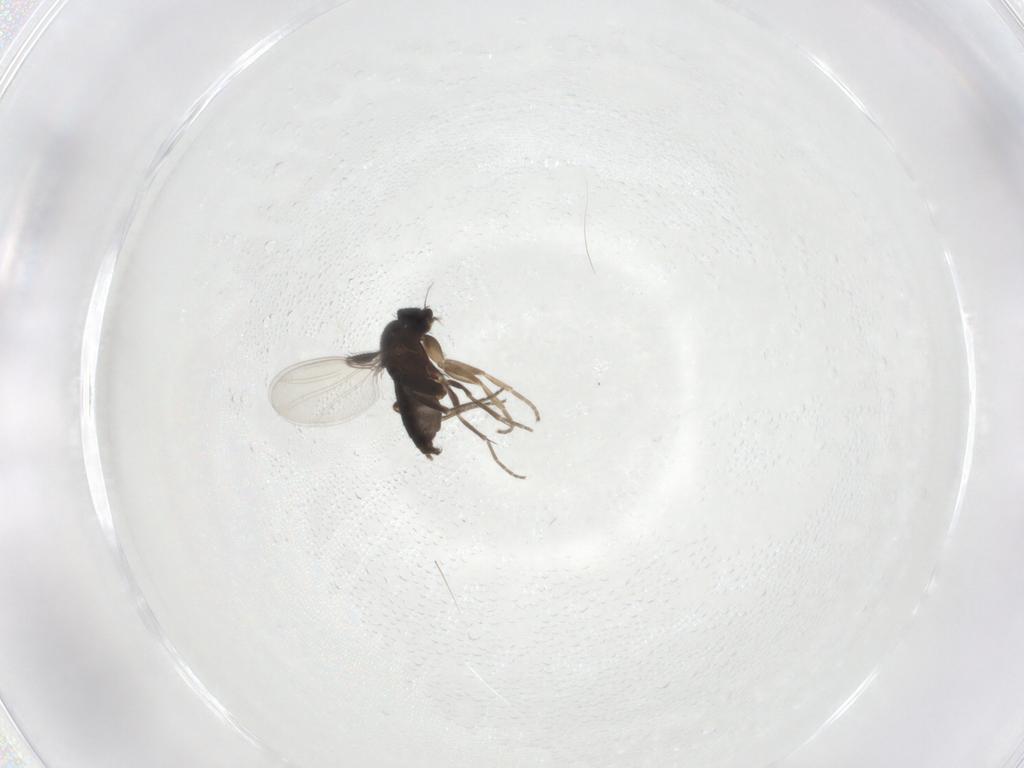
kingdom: Animalia
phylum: Arthropoda
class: Insecta
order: Diptera
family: Phoridae
